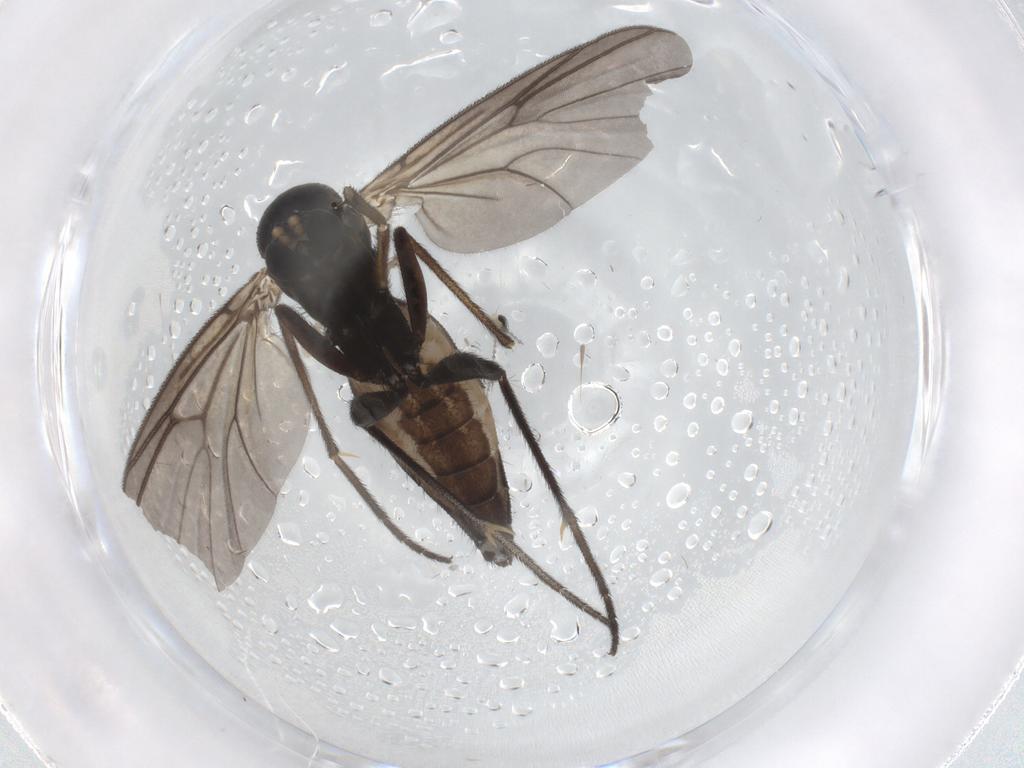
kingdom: Animalia
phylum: Arthropoda
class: Insecta
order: Diptera
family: Mycetophilidae
